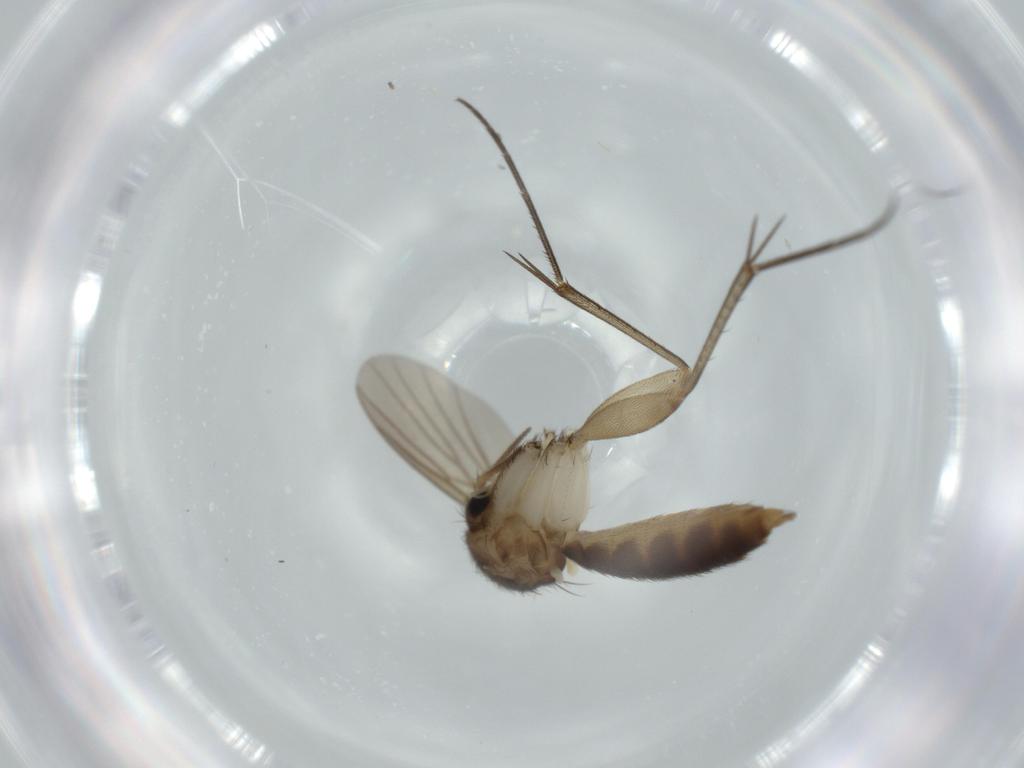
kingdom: Animalia
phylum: Arthropoda
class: Insecta
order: Diptera
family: Mycetophilidae
